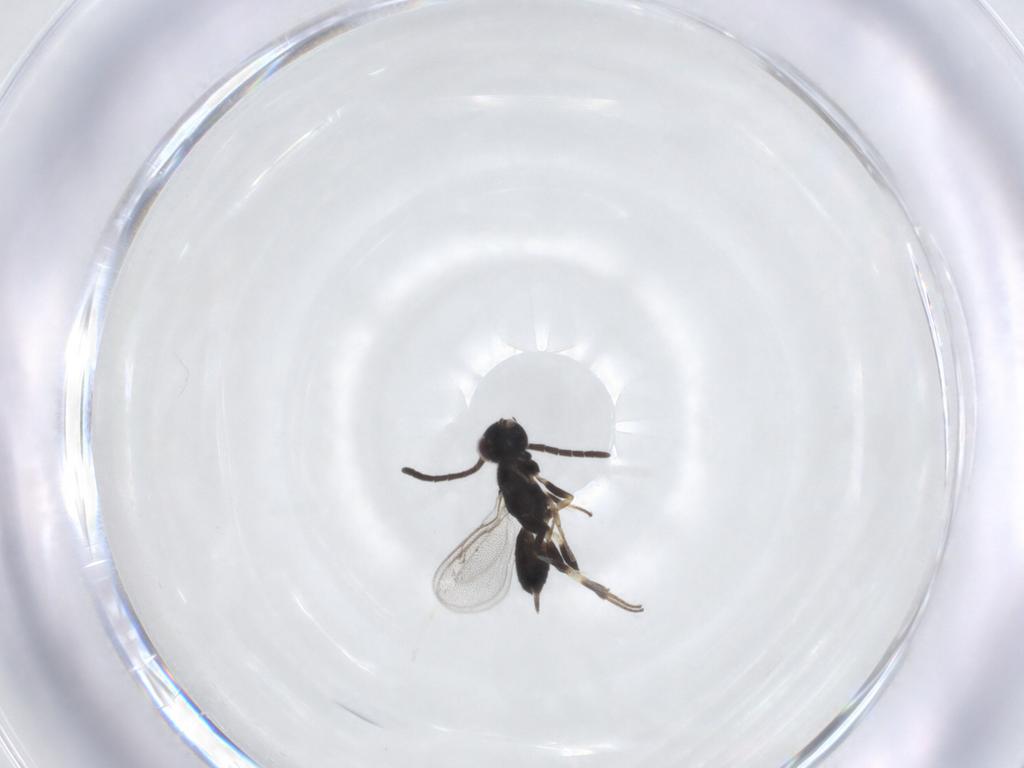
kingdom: Animalia
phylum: Arthropoda
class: Insecta
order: Hymenoptera
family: Eupelmidae
